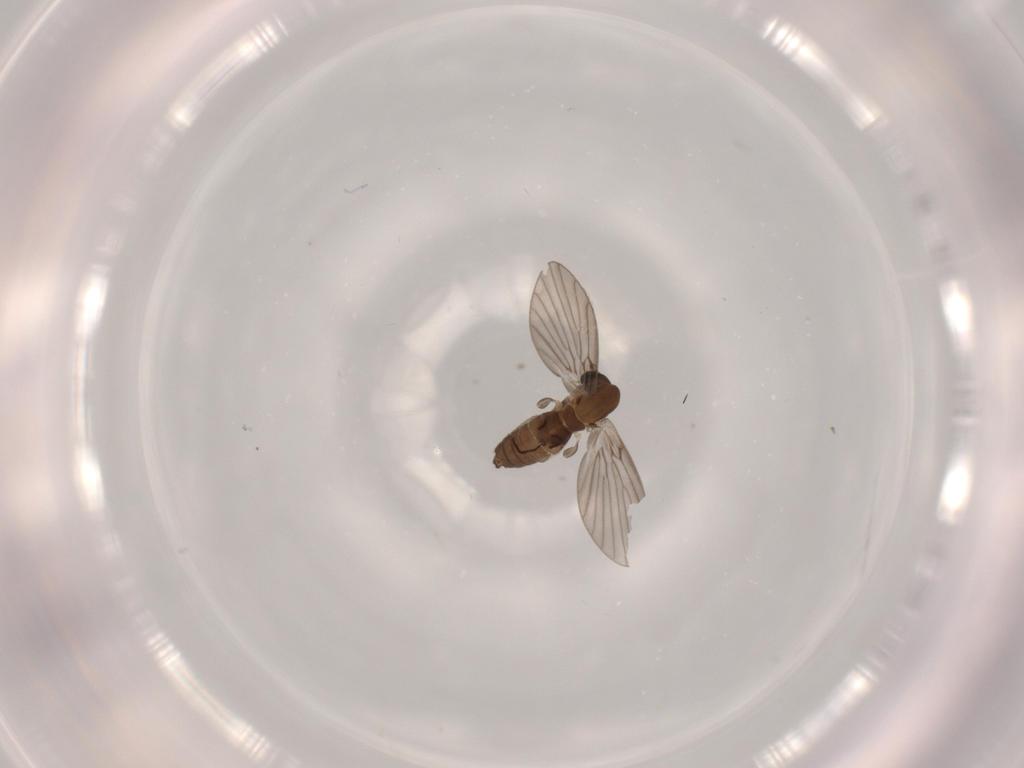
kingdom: Animalia
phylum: Arthropoda
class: Insecta
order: Diptera
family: Psychodidae
